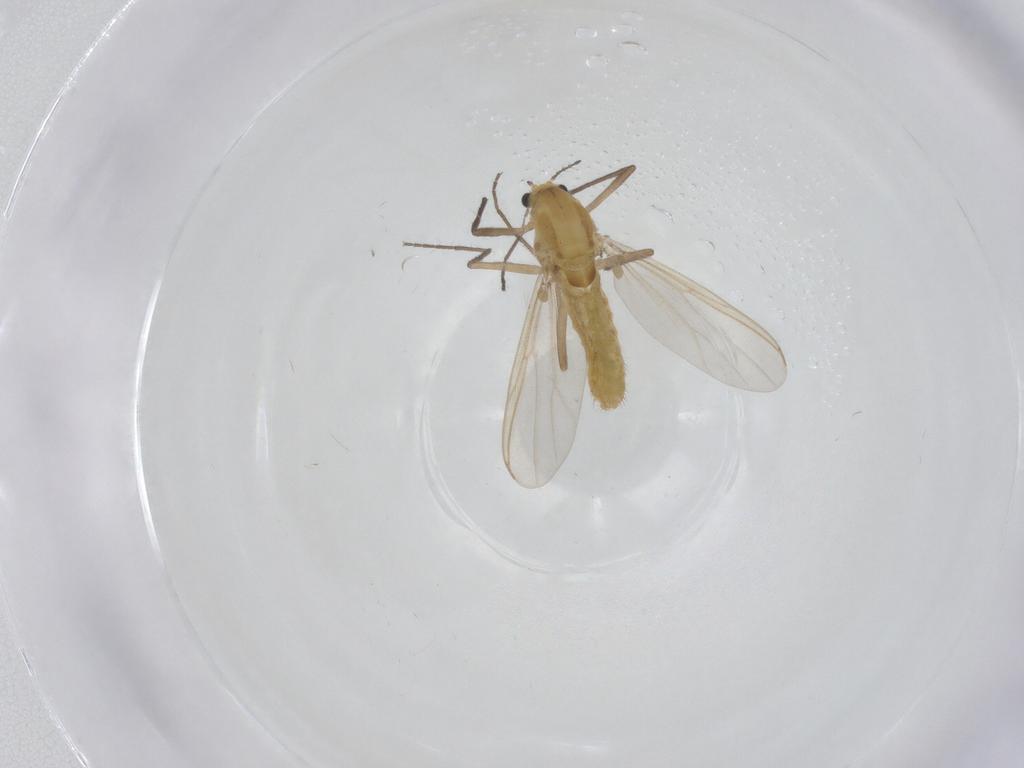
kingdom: Animalia
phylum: Arthropoda
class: Insecta
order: Diptera
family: Chironomidae
